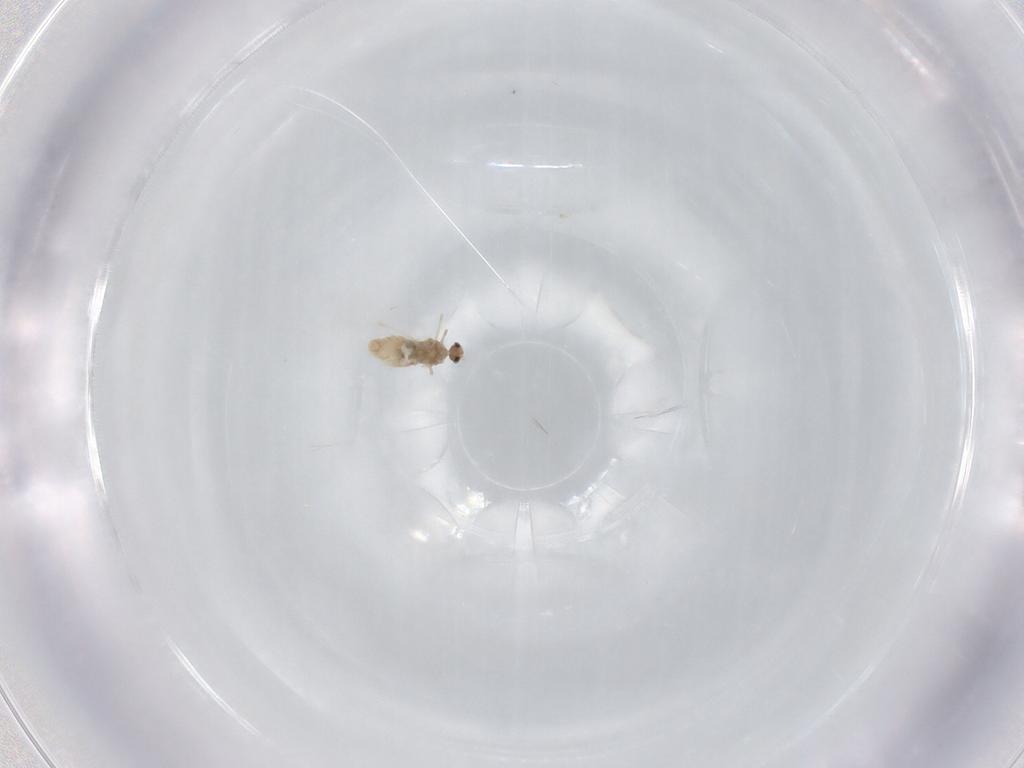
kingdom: Animalia
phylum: Arthropoda
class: Insecta
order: Diptera
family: Cecidomyiidae
